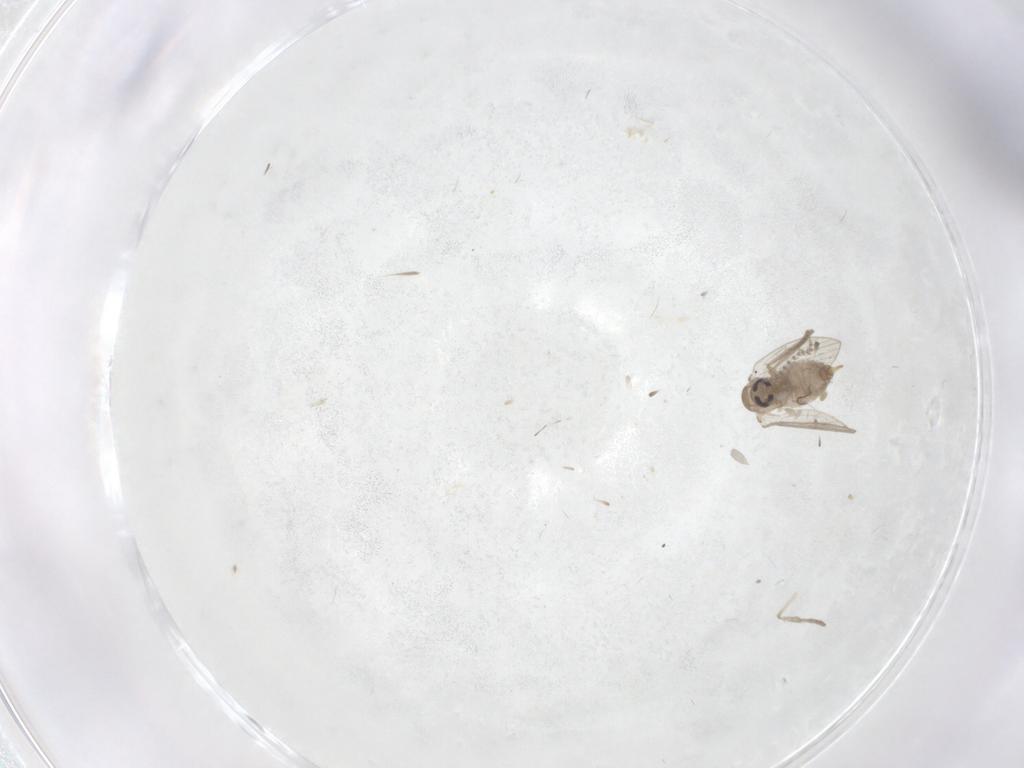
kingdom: Animalia
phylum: Arthropoda
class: Insecta
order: Diptera
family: Psychodidae
